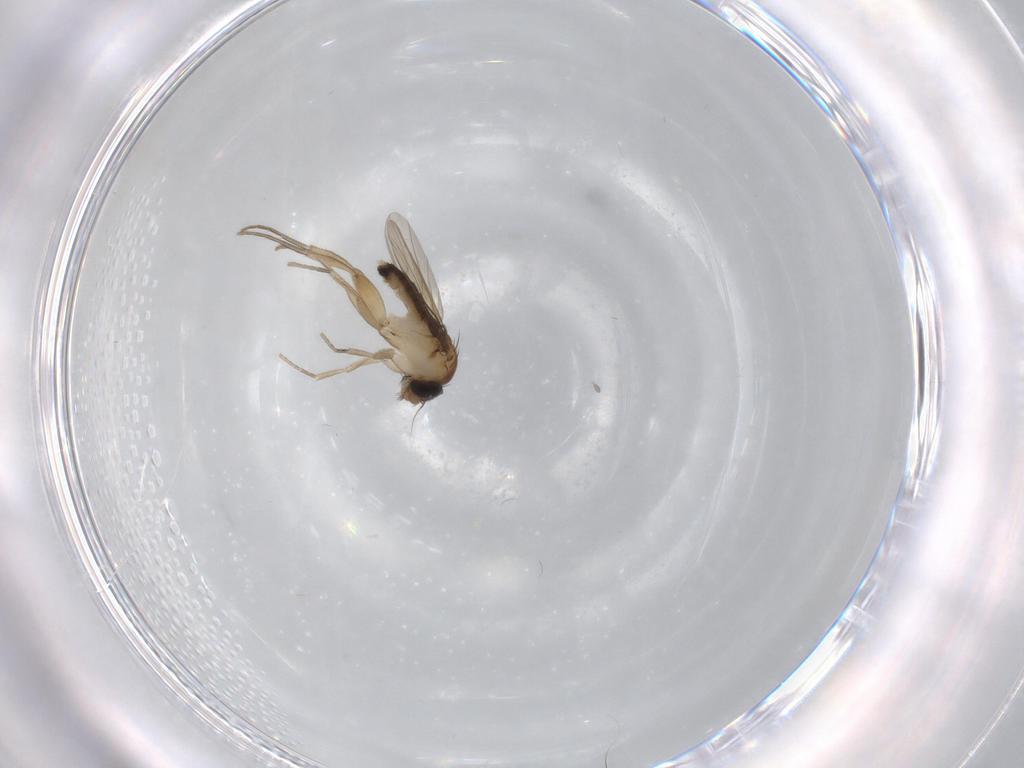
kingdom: Animalia
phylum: Arthropoda
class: Insecta
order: Diptera
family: Phoridae
